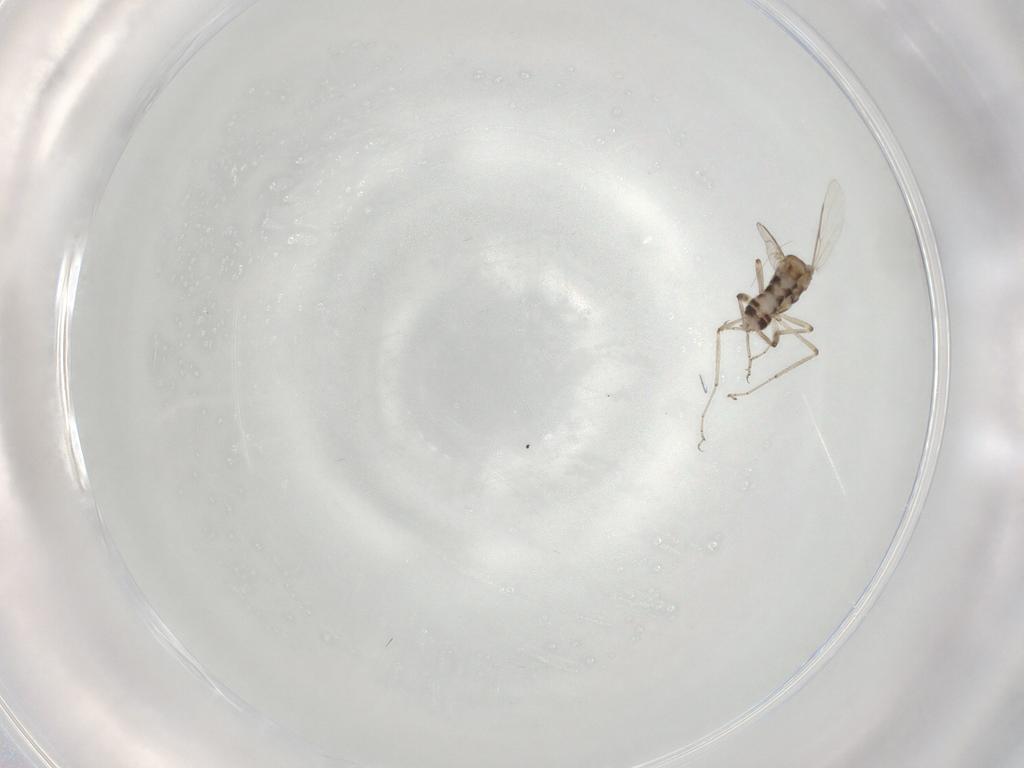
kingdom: Animalia
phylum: Arthropoda
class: Insecta
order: Diptera
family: Ceratopogonidae
